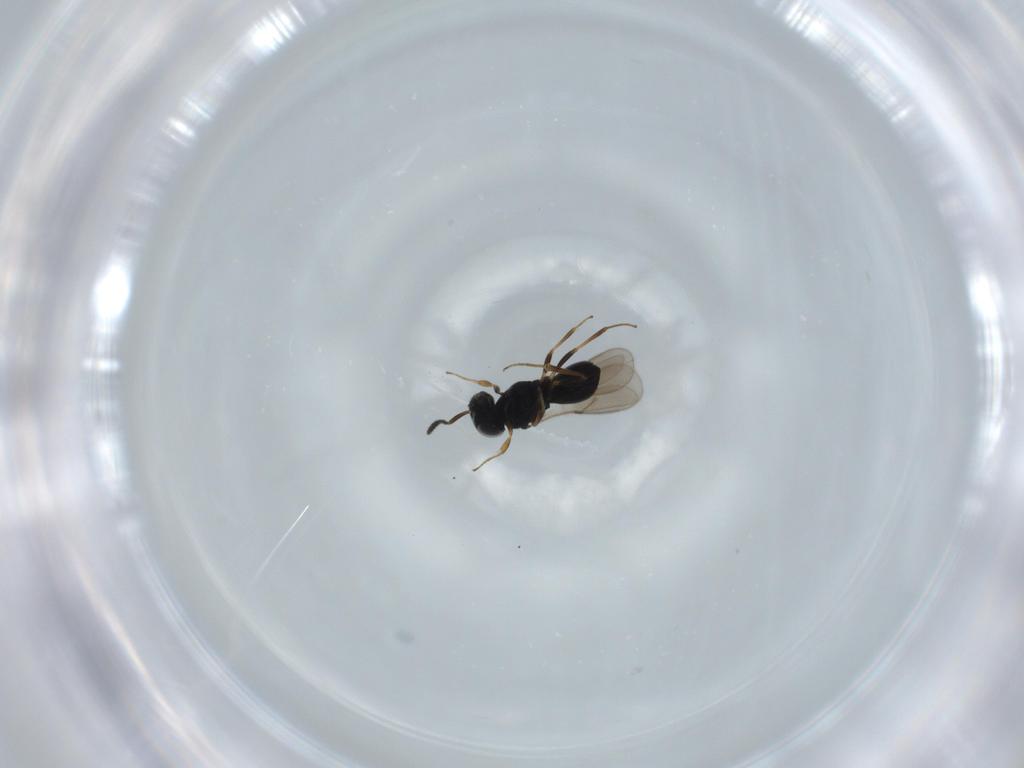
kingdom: Animalia
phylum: Arthropoda
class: Insecta
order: Hymenoptera
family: Scelionidae
